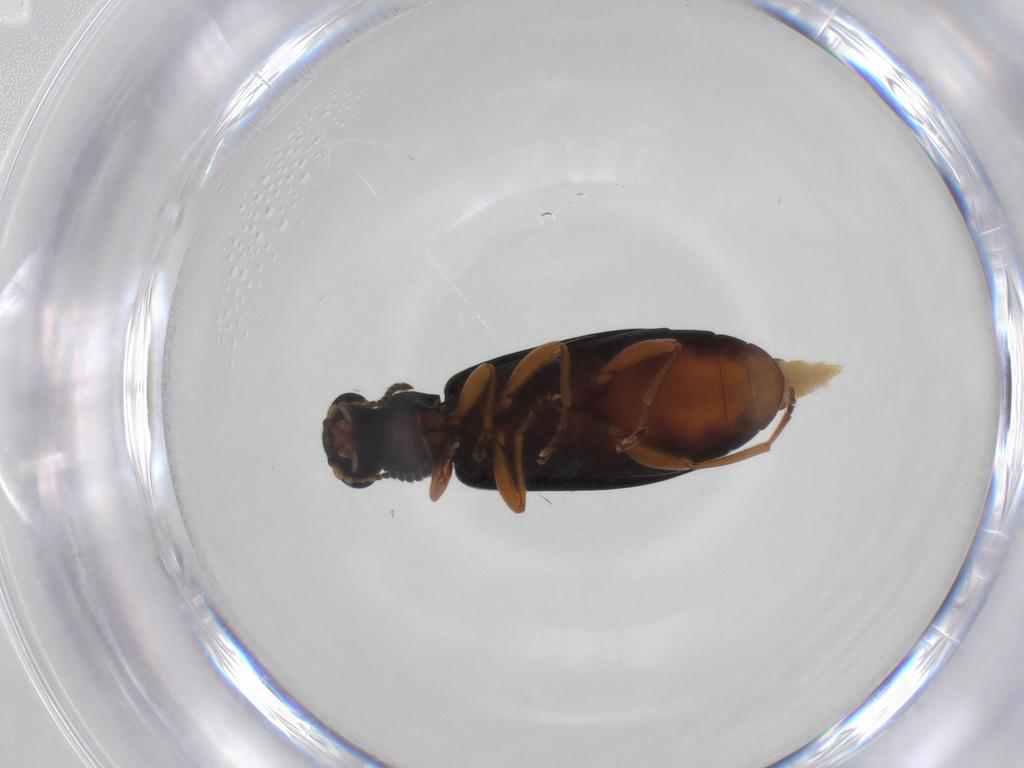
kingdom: Animalia
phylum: Arthropoda
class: Insecta
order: Coleoptera
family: Mycteridae
